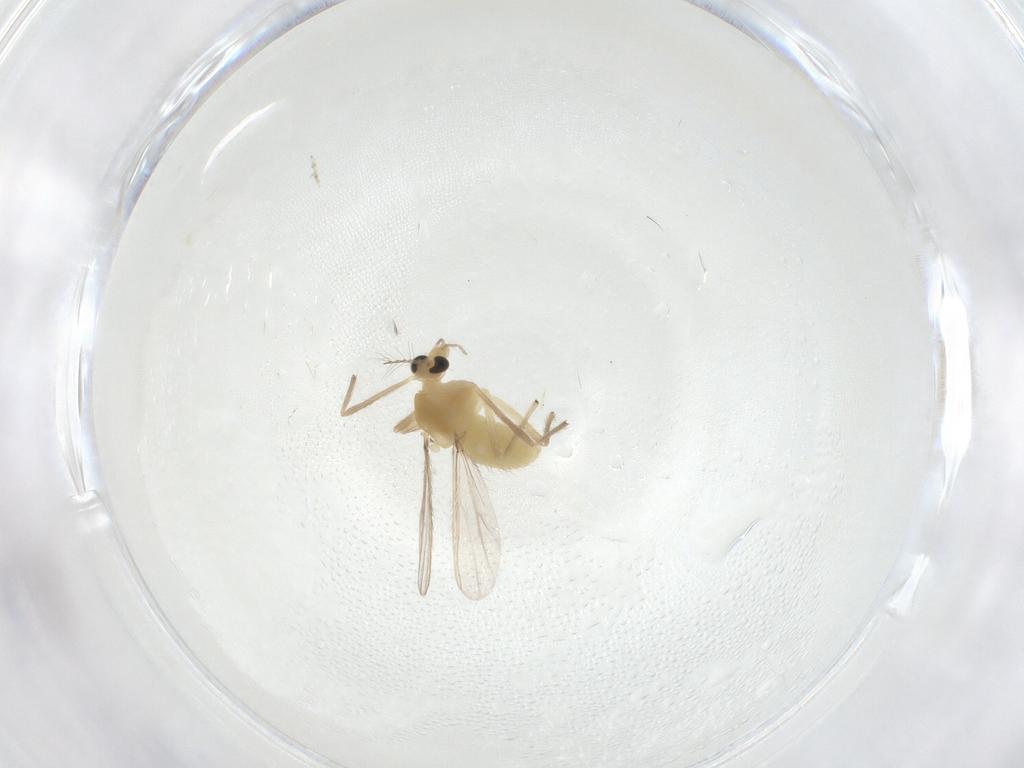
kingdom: Animalia
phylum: Arthropoda
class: Insecta
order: Diptera
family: Chironomidae
